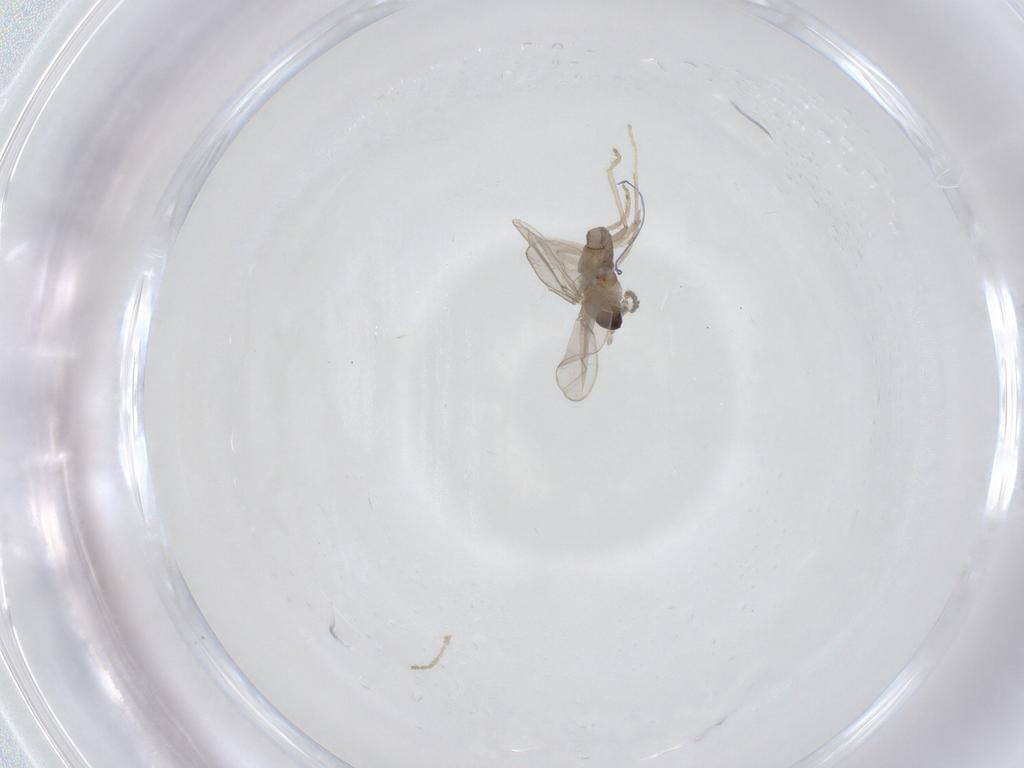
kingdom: Animalia
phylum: Arthropoda
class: Insecta
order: Diptera
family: Cecidomyiidae
